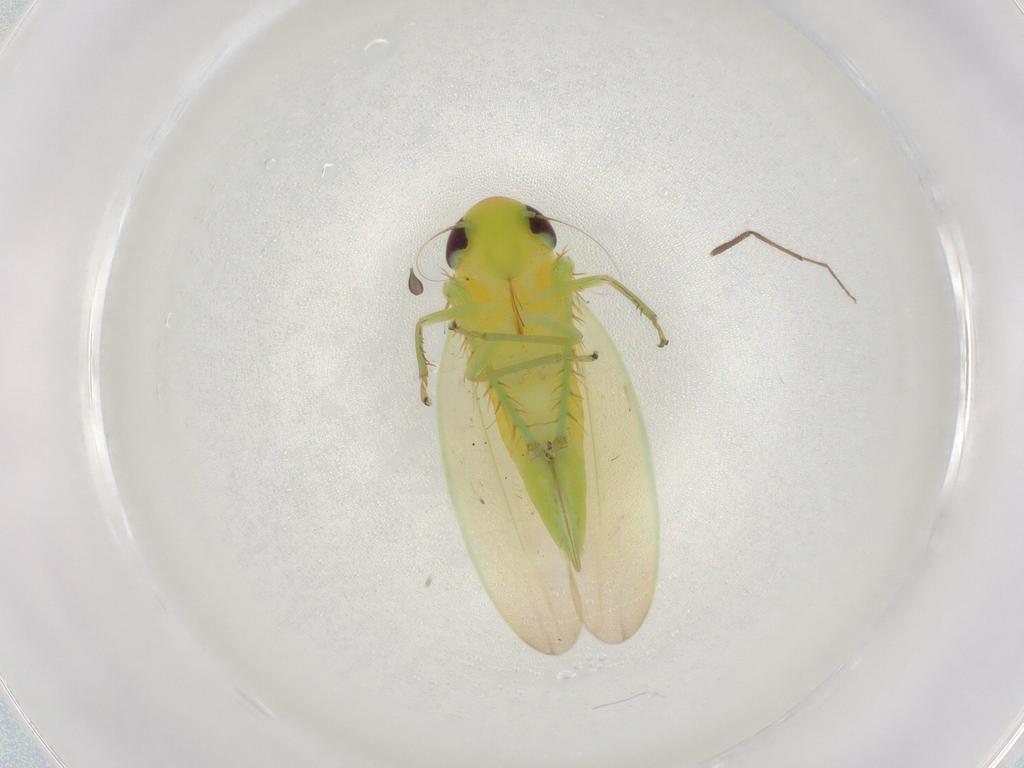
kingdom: Animalia
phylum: Arthropoda
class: Insecta
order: Hemiptera
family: Cicadellidae
